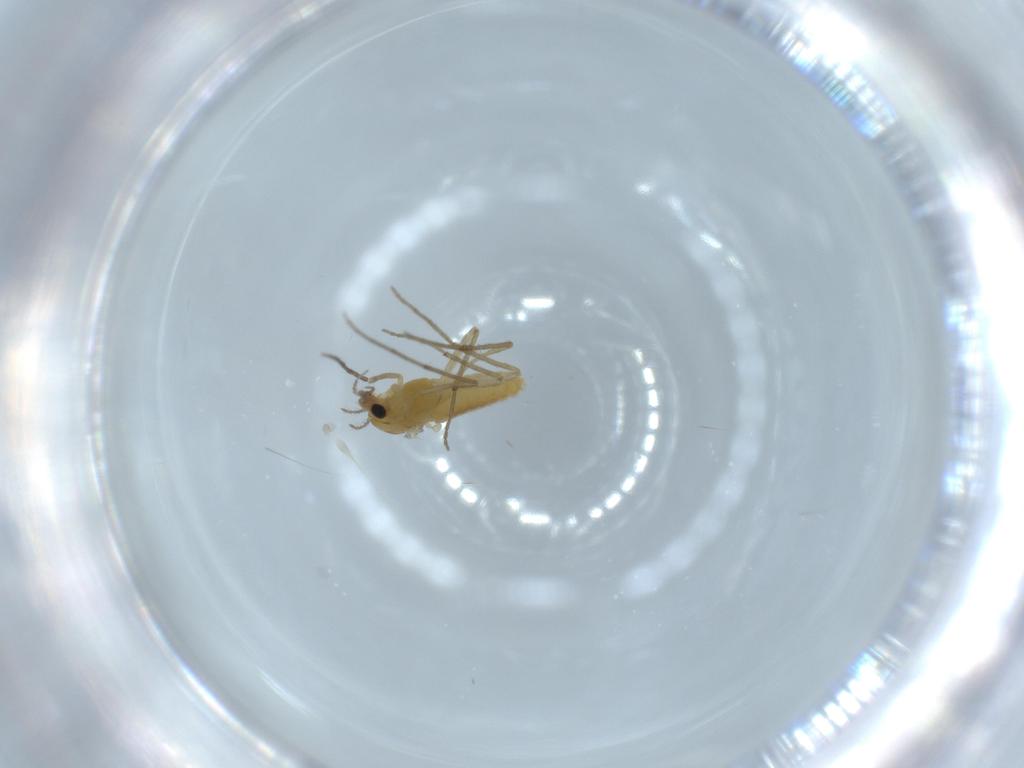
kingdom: Animalia
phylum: Arthropoda
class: Insecta
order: Diptera
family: Chironomidae
